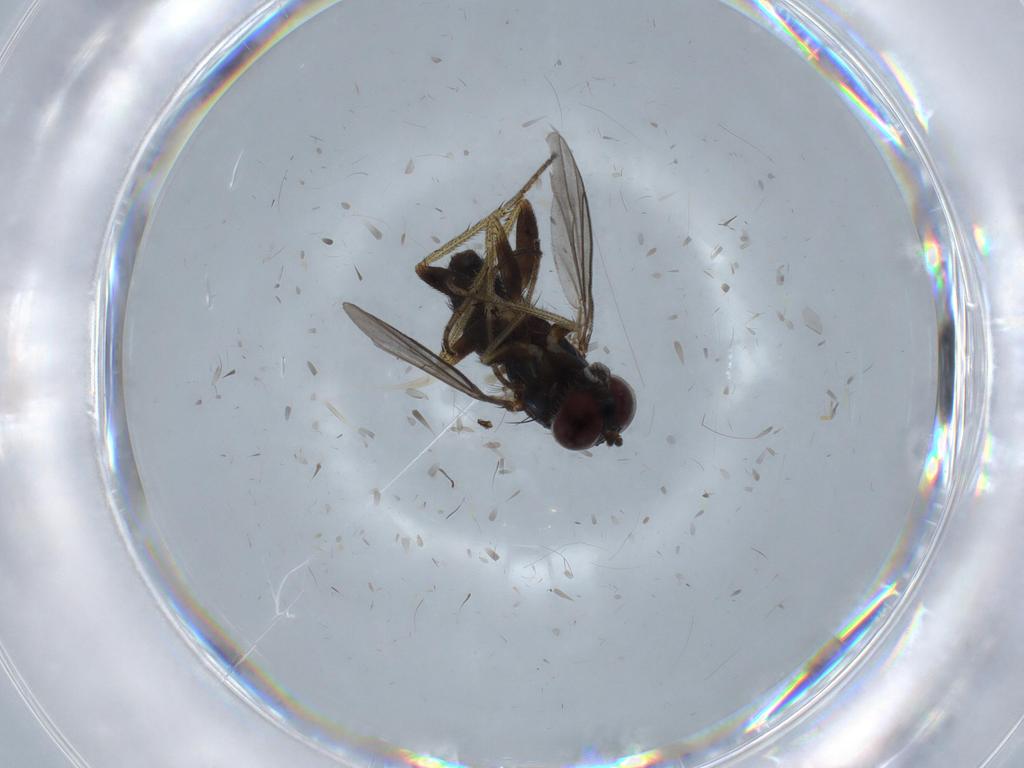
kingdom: Animalia
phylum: Arthropoda
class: Insecta
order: Diptera
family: Cecidomyiidae
